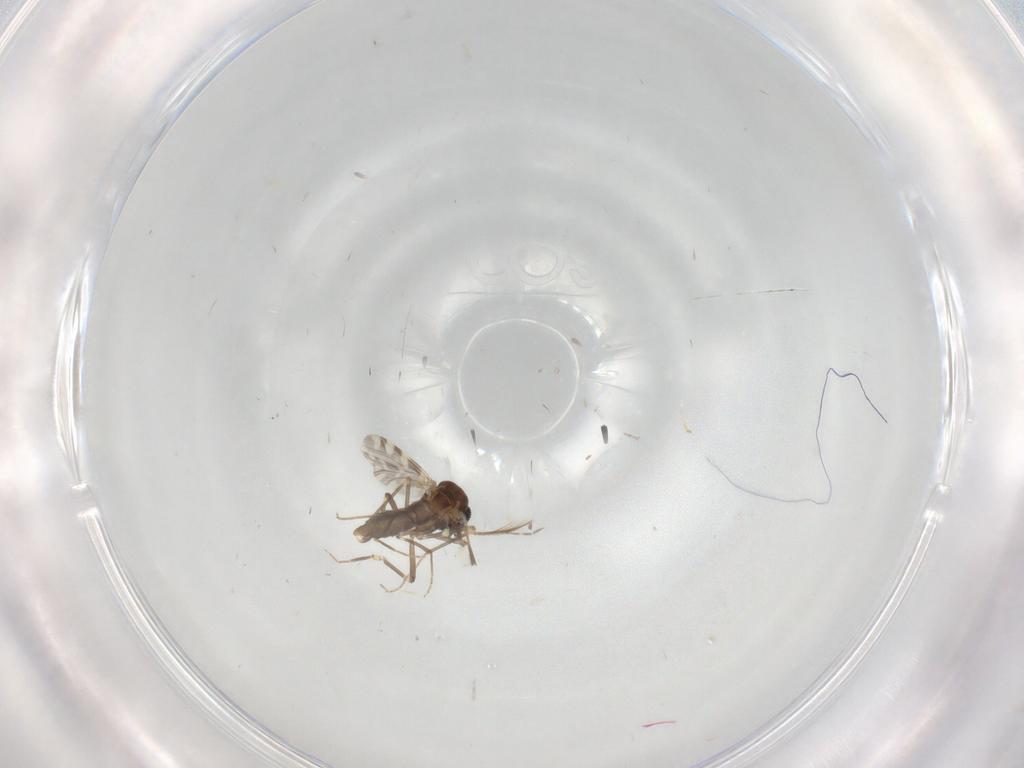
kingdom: Animalia
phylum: Arthropoda
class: Insecta
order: Diptera
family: Ceratopogonidae
